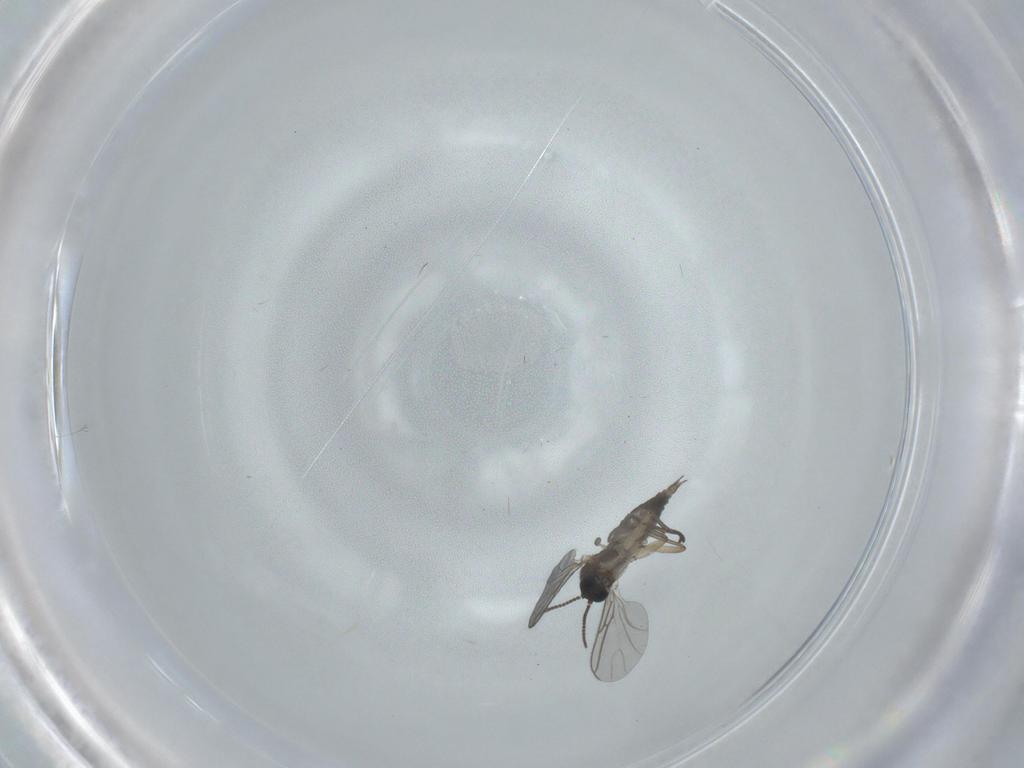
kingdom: Animalia
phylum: Arthropoda
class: Insecta
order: Diptera
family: Sciaridae
